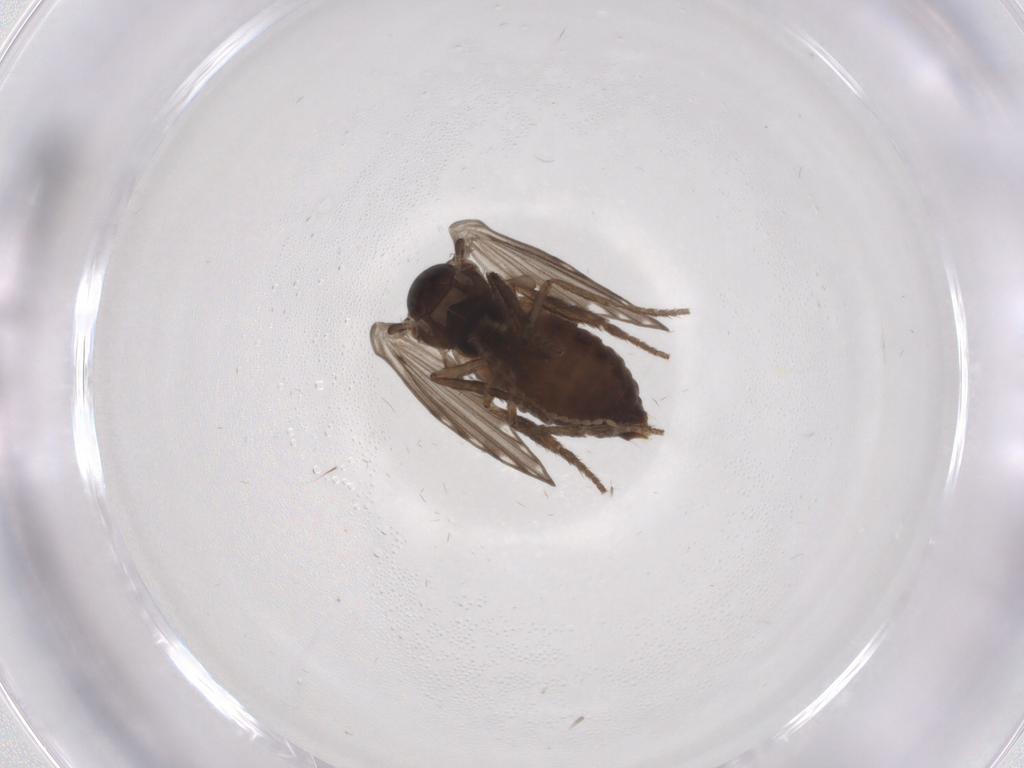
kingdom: Animalia
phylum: Arthropoda
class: Insecta
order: Diptera
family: Psychodidae
